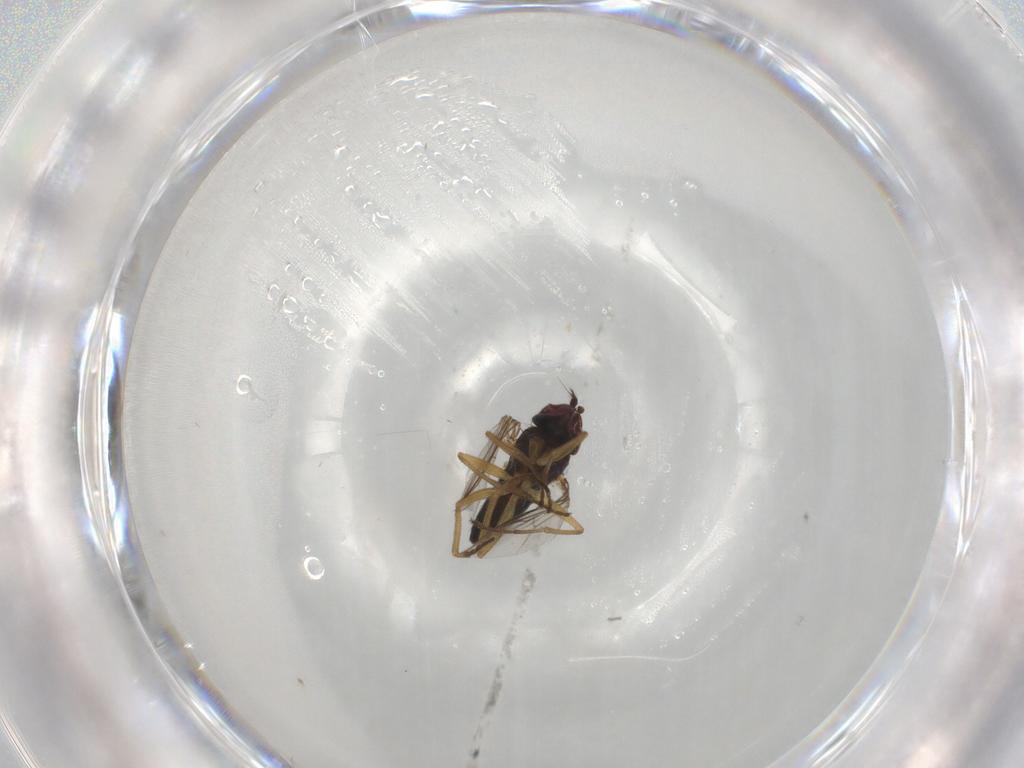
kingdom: Animalia
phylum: Arthropoda
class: Insecta
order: Diptera
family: Dolichopodidae
